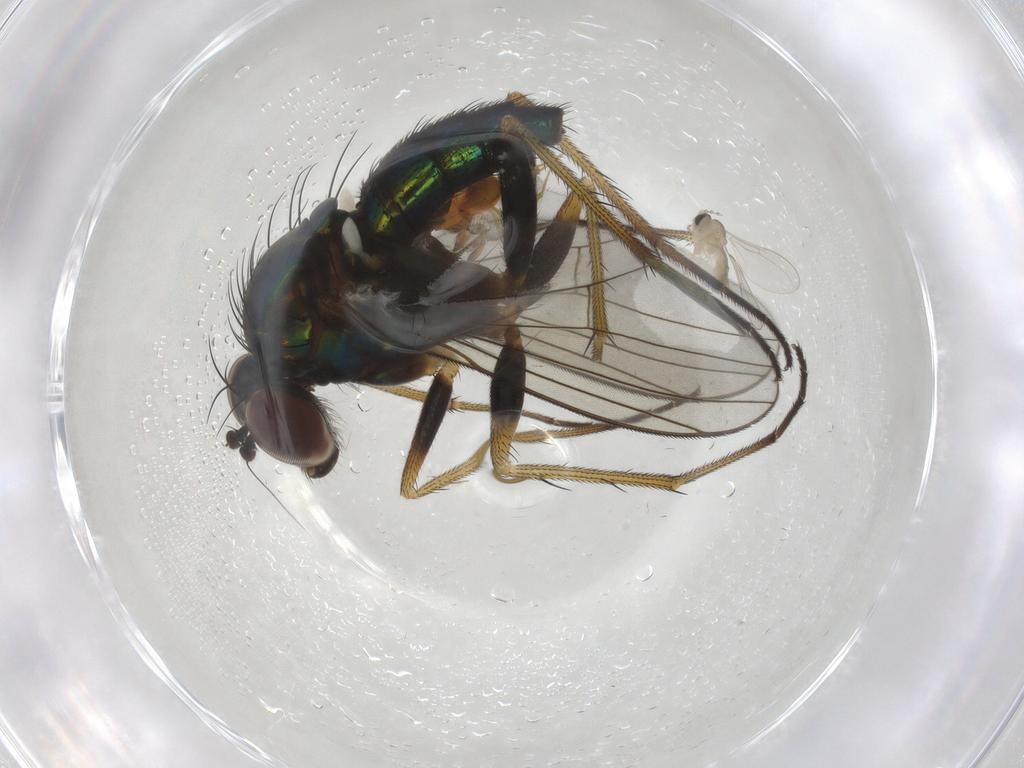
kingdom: Animalia
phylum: Arthropoda
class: Insecta
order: Diptera
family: Dolichopodidae
